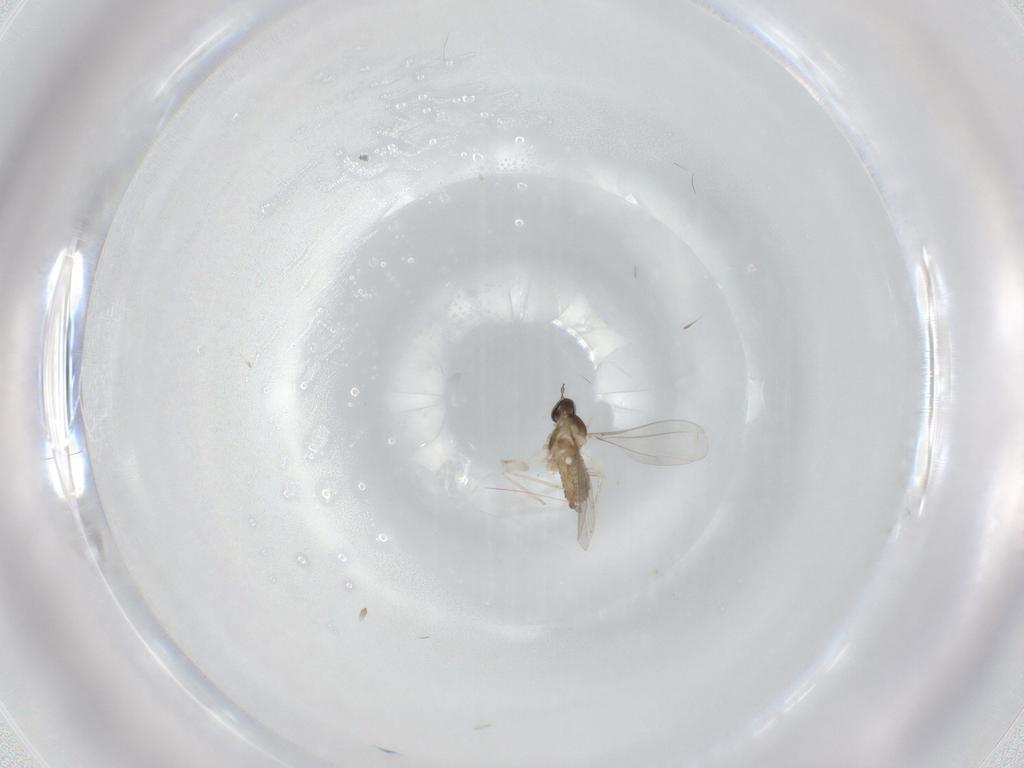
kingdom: Animalia
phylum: Arthropoda
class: Insecta
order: Diptera
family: Cecidomyiidae
